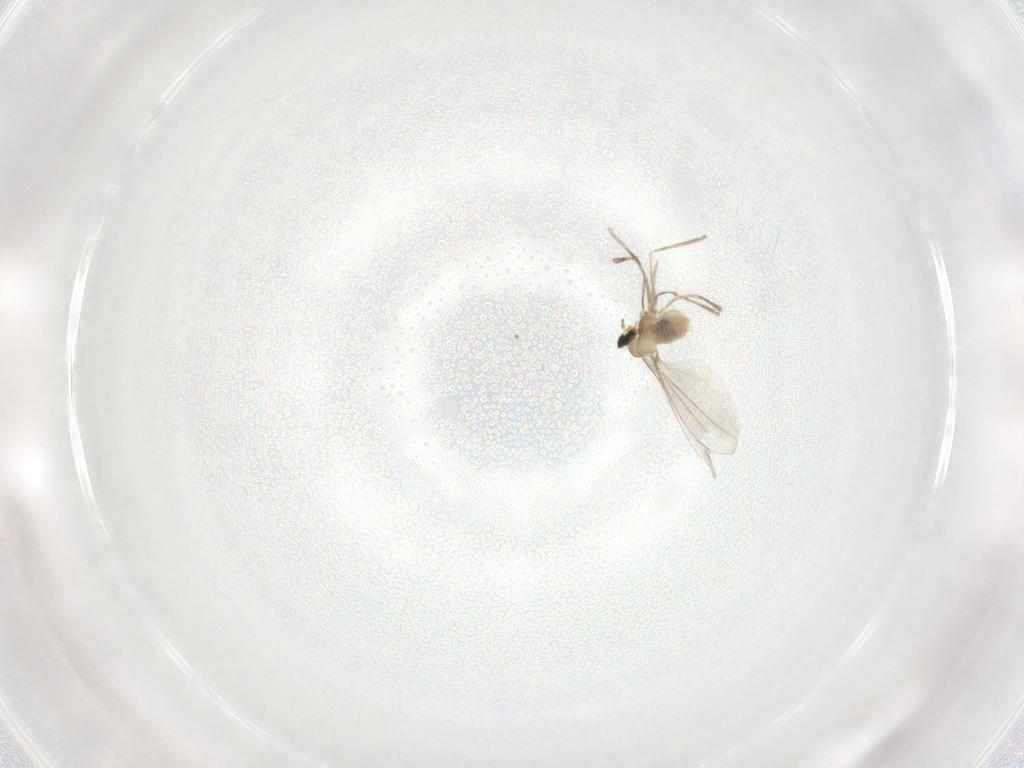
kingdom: Animalia
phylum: Arthropoda
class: Insecta
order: Diptera
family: Cecidomyiidae
